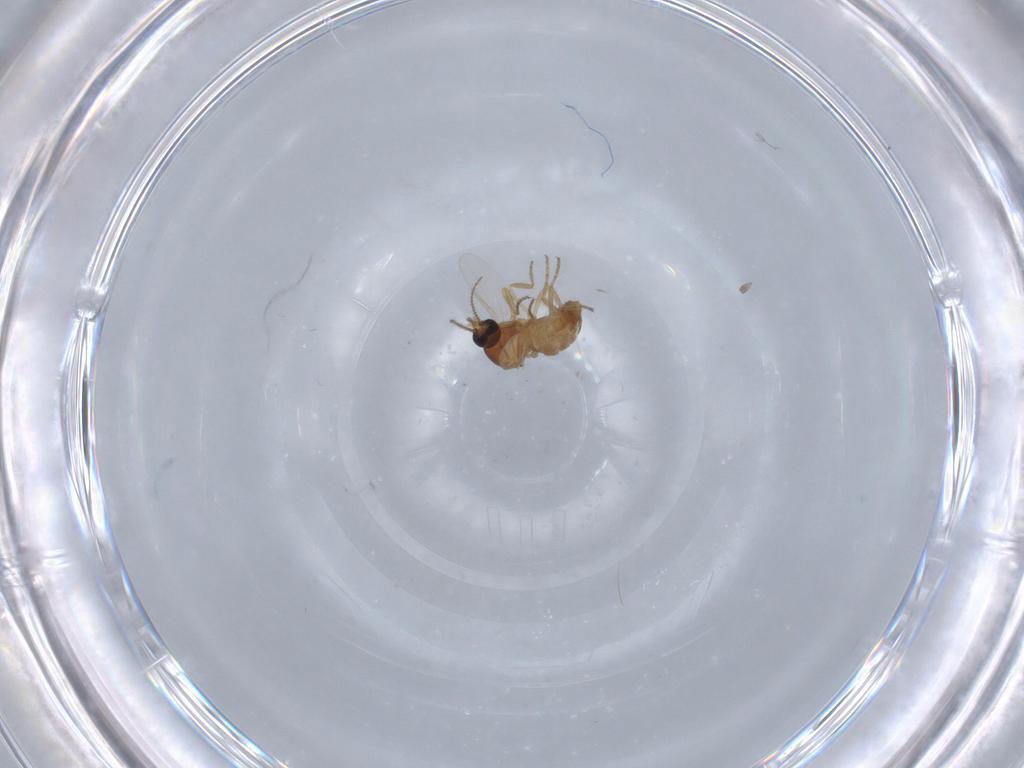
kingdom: Animalia
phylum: Arthropoda
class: Insecta
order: Diptera
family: Ceratopogonidae
